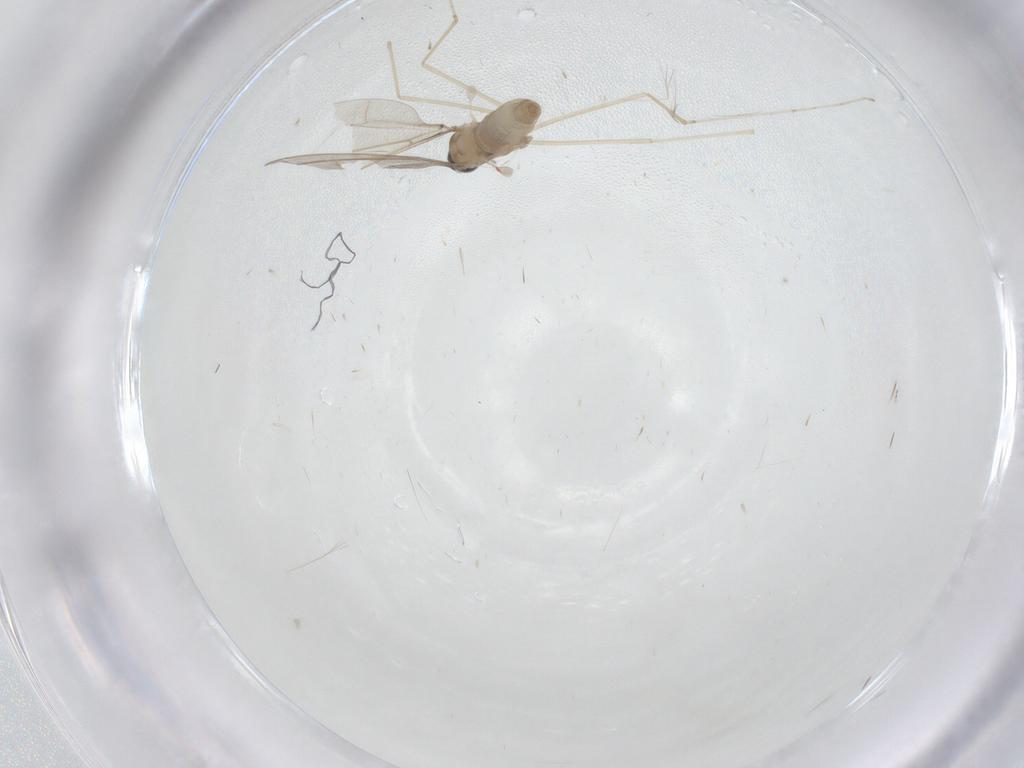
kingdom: Animalia
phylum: Arthropoda
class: Insecta
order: Diptera
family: Cecidomyiidae
